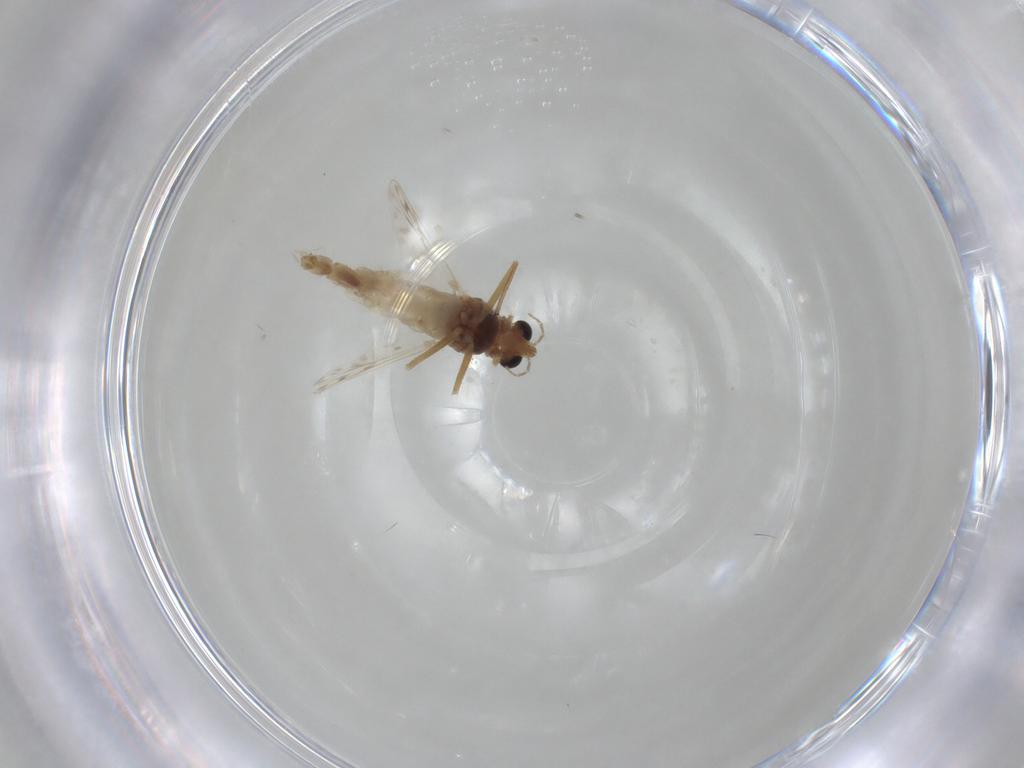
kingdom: Animalia
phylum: Arthropoda
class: Insecta
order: Diptera
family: Chironomidae
